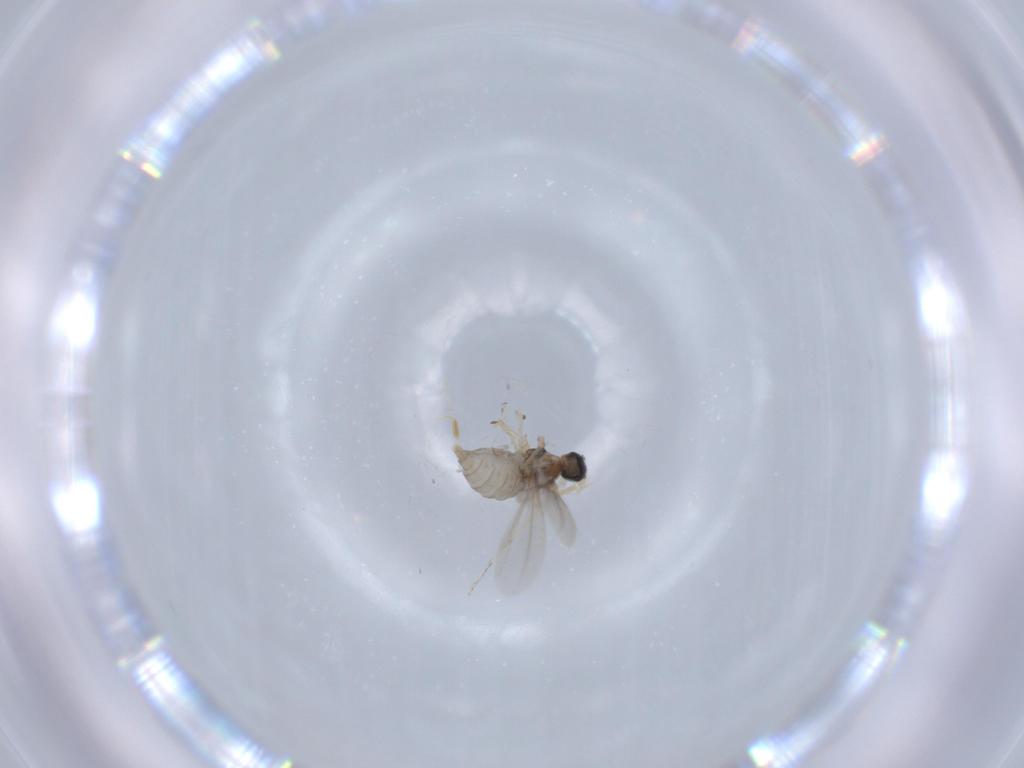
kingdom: Animalia
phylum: Arthropoda
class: Insecta
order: Diptera
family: Cecidomyiidae
